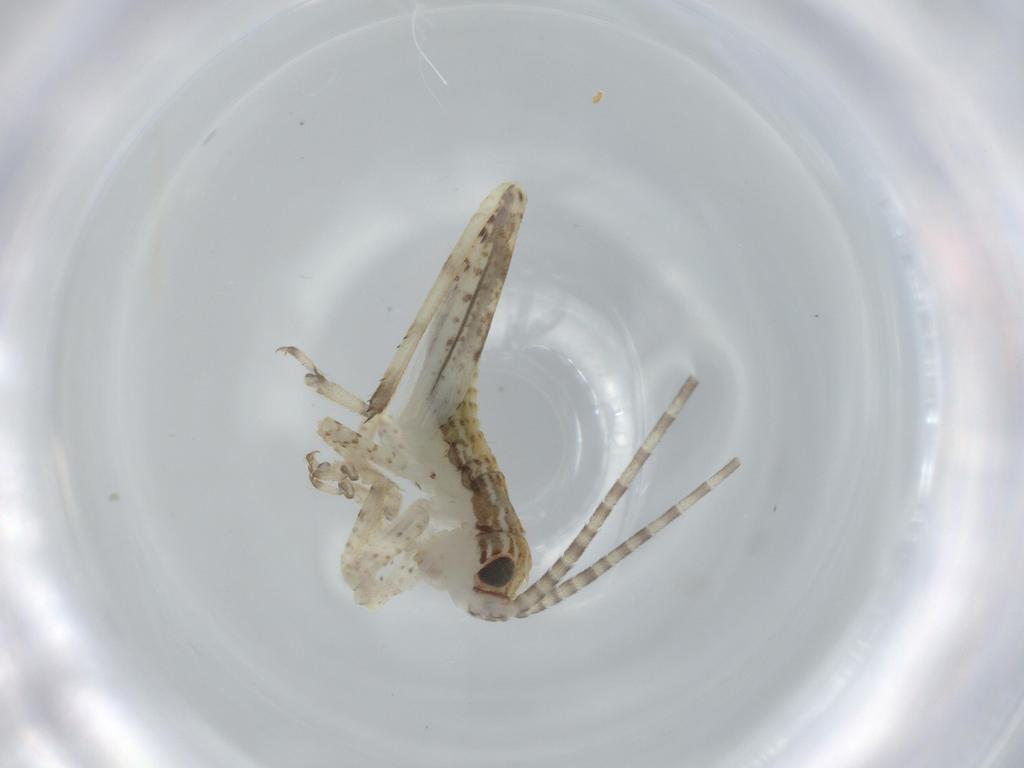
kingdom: Animalia
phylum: Arthropoda
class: Insecta
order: Orthoptera
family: Gryllidae
